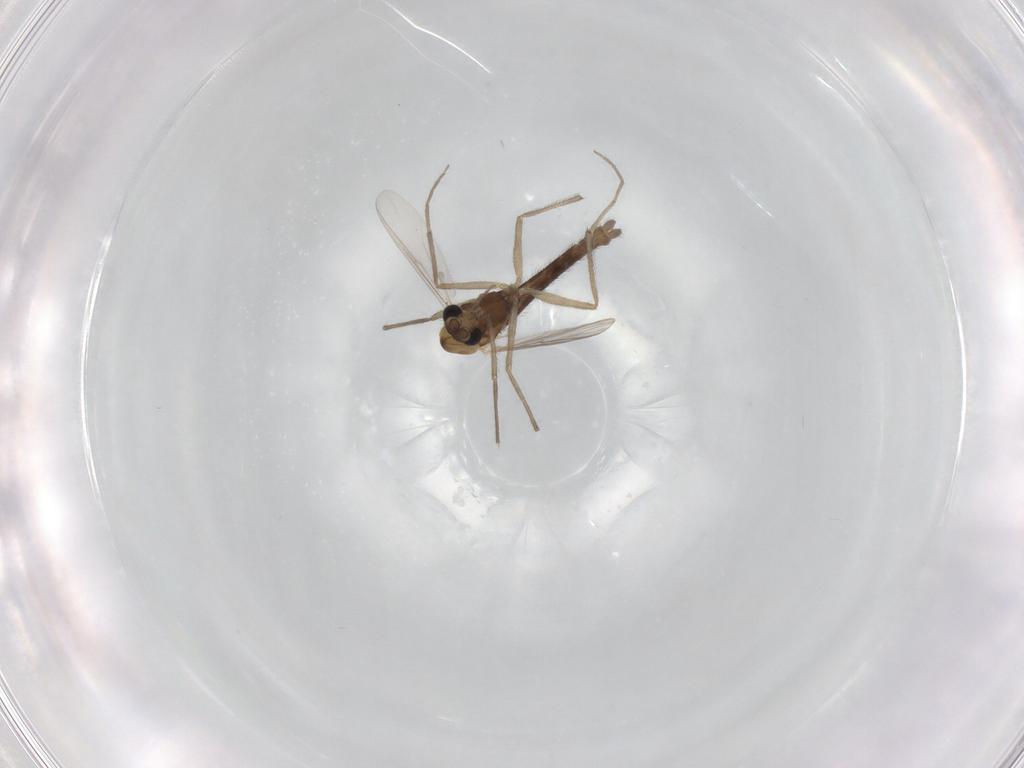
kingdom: Animalia
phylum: Arthropoda
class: Insecta
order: Diptera
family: Chironomidae
